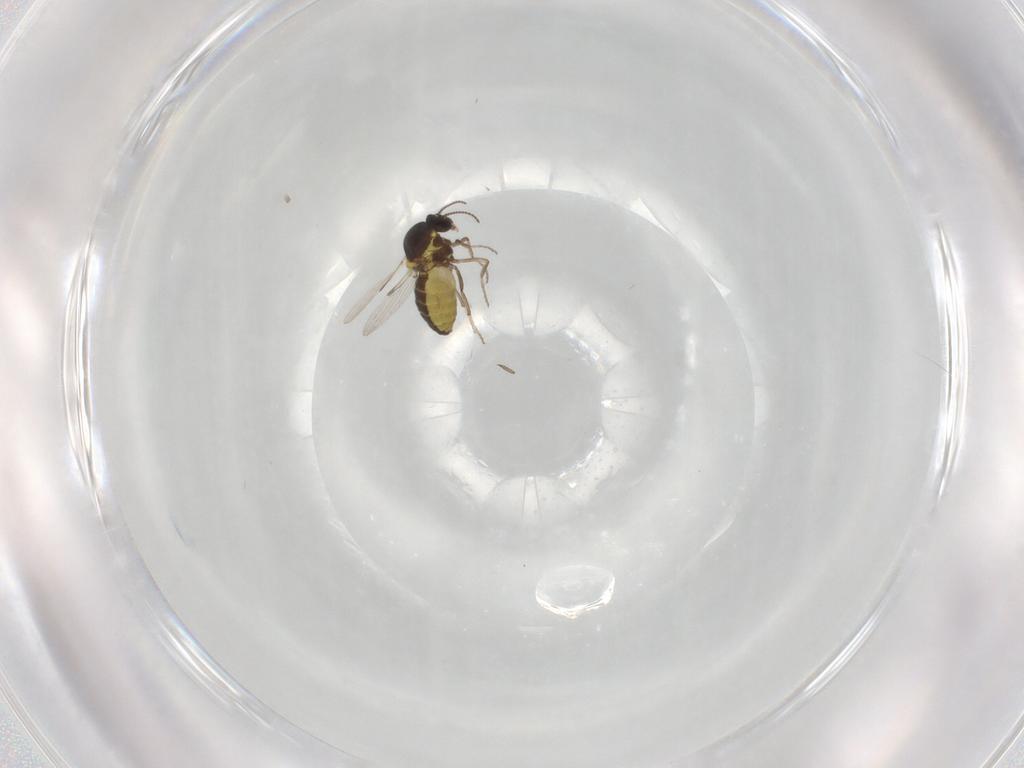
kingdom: Animalia
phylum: Arthropoda
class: Insecta
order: Diptera
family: Ceratopogonidae
